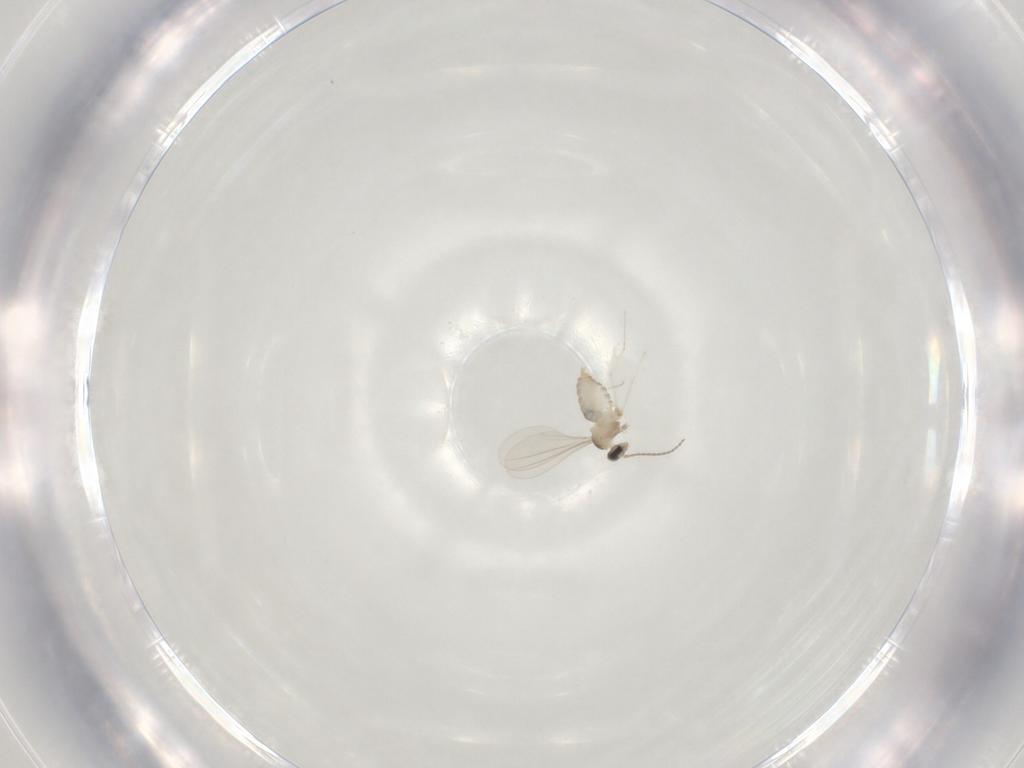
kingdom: Animalia
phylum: Arthropoda
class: Insecta
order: Diptera
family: Cecidomyiidae
